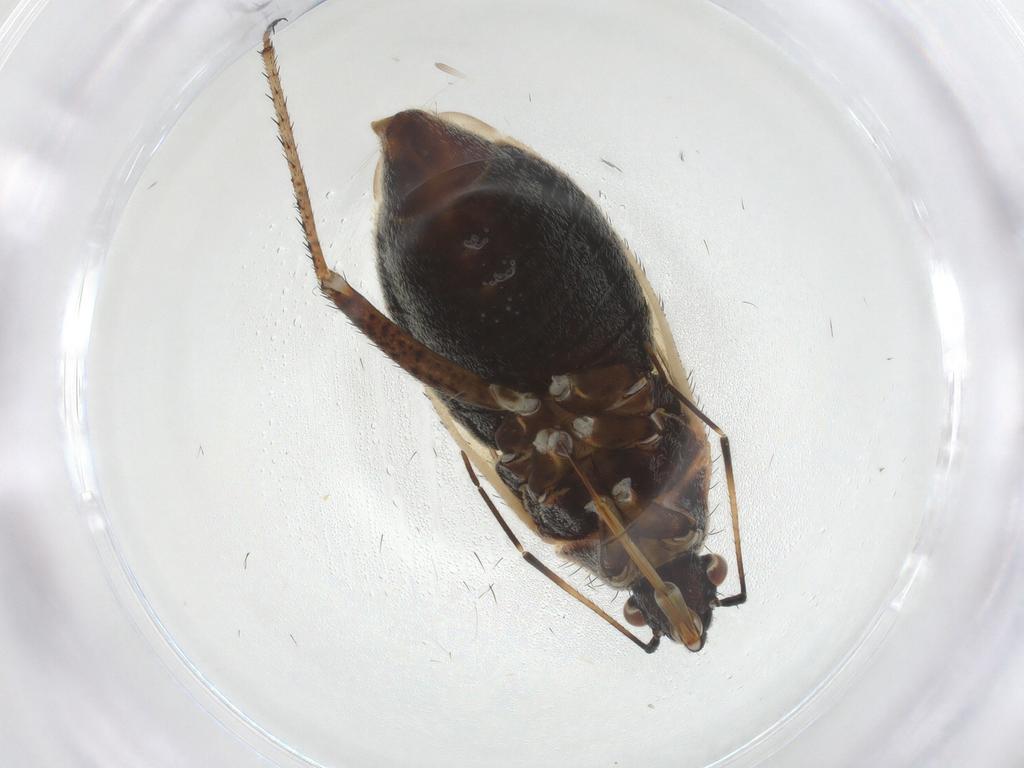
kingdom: Animalia
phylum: Arthropoda
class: Insecta
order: Hemiptera
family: Miridae
